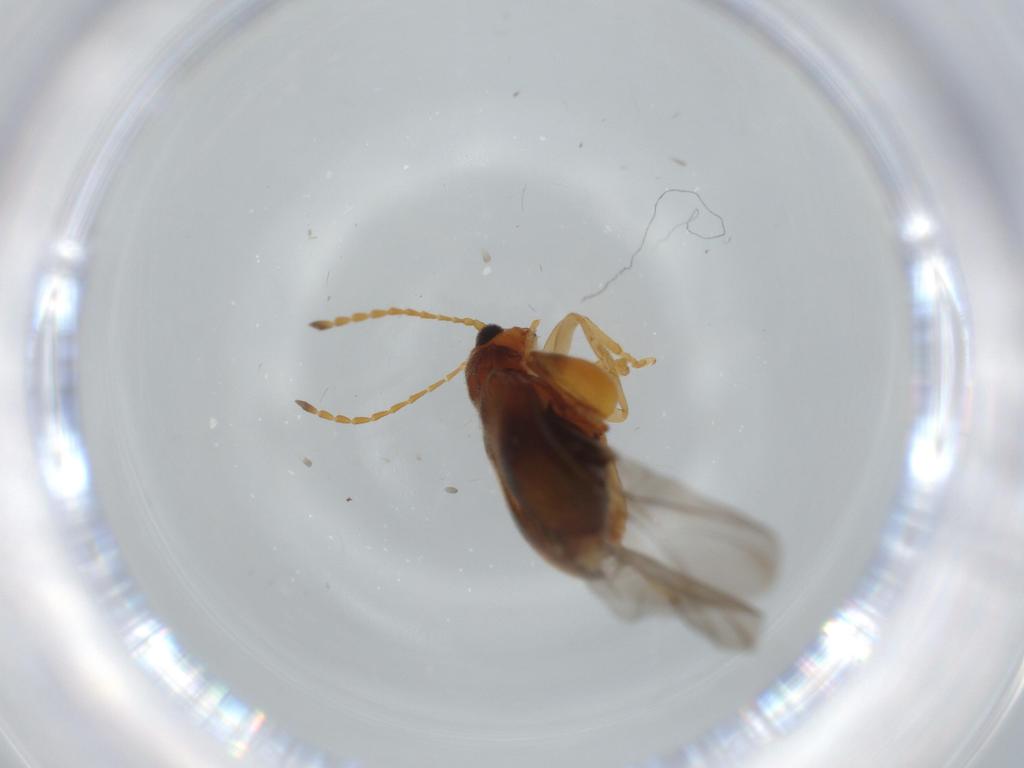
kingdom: Animalia
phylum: Arthropoda
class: Insecta
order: Coleoptera
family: Chrysomelidae
